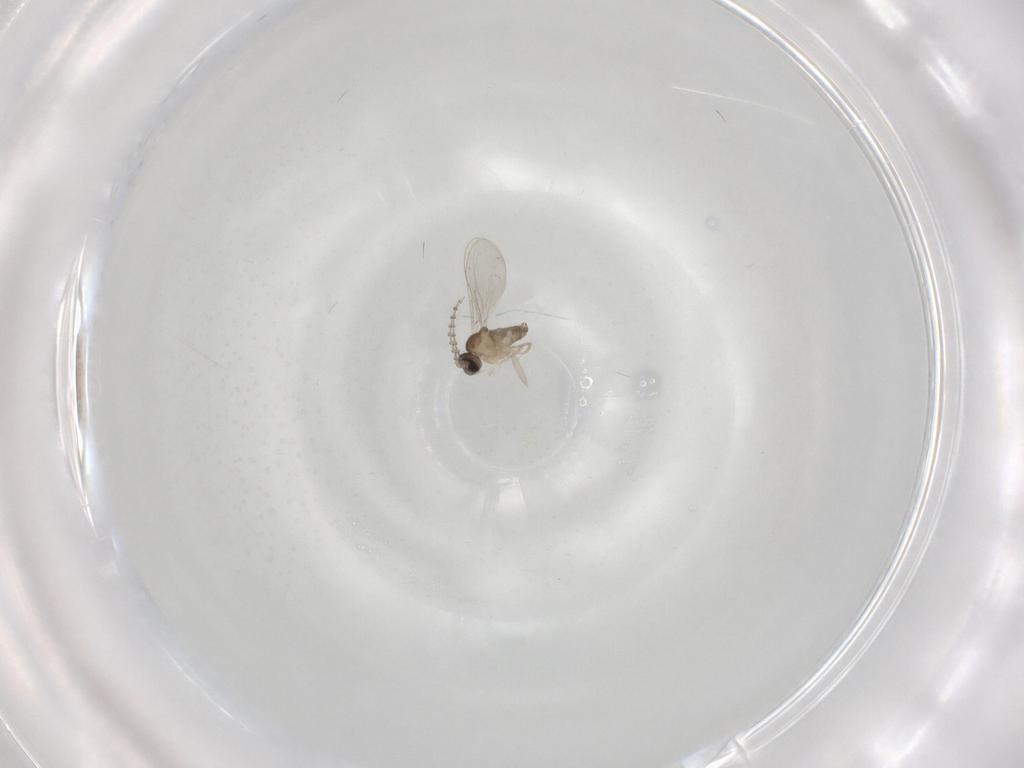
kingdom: Animalia
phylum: Arthropoda
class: Insecta
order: Diptera
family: Cecidomyiidae
